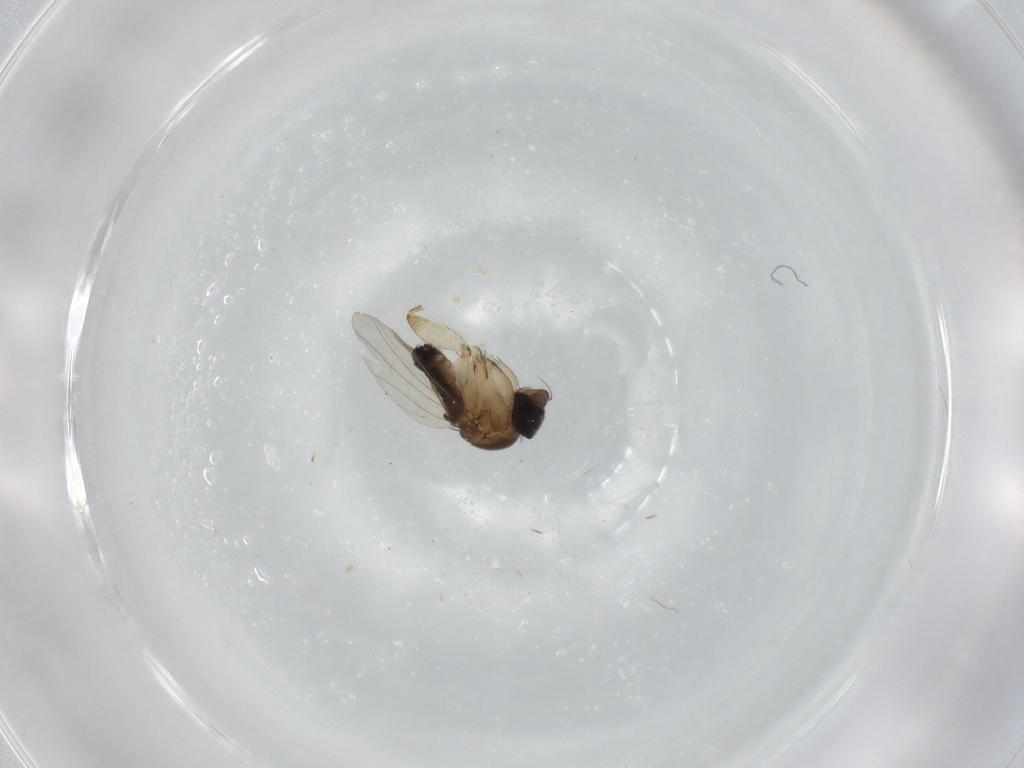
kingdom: Animalia
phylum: Arthropoda
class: Insecta
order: Diptera
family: Phoridae
